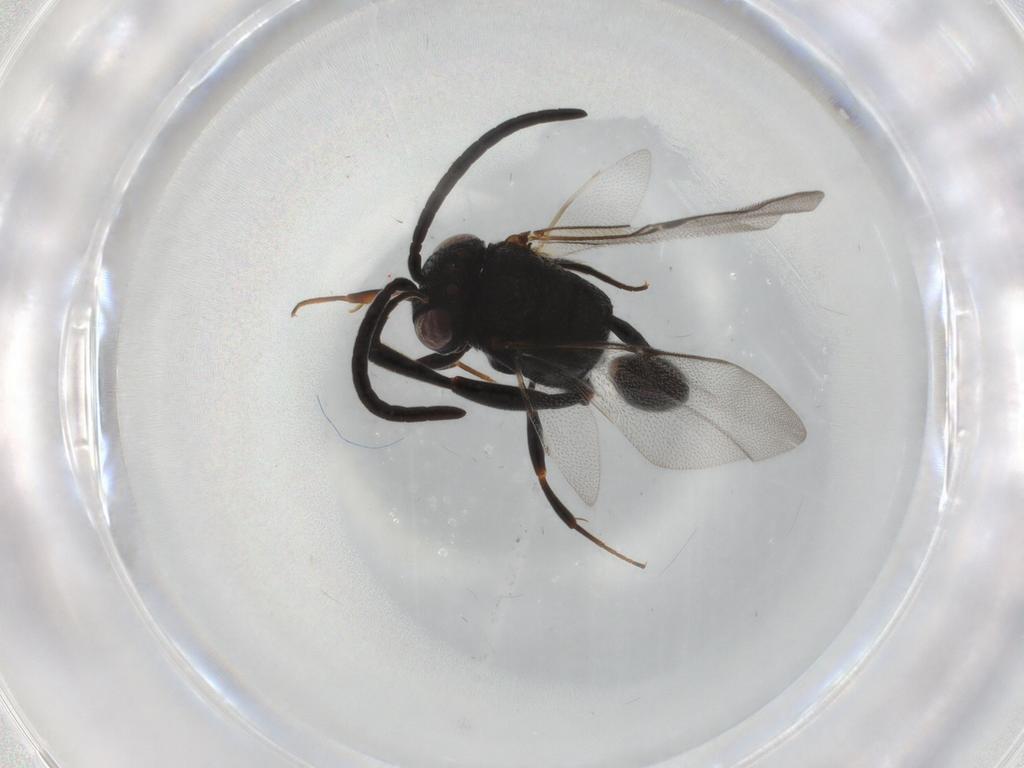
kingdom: Animalia
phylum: Arthropoda
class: Insecta
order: Hymenoptera
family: Evaniidae
